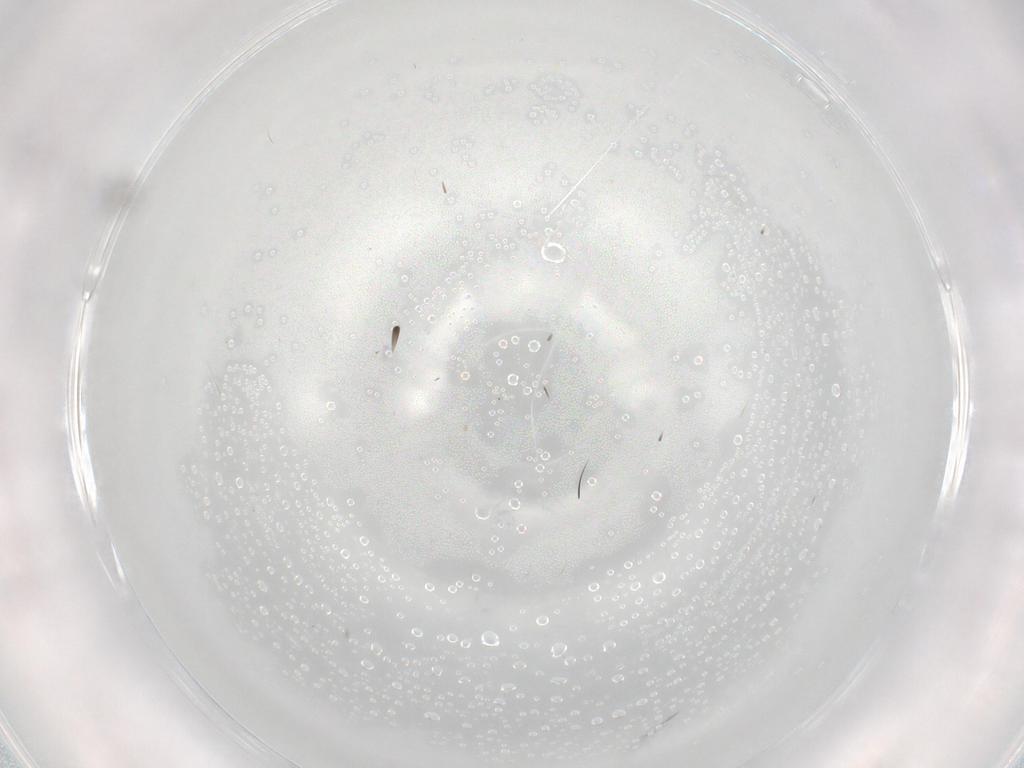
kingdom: Animalia
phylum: Arthropoda
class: Insecta
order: Diptera
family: Cecidomyiidae
